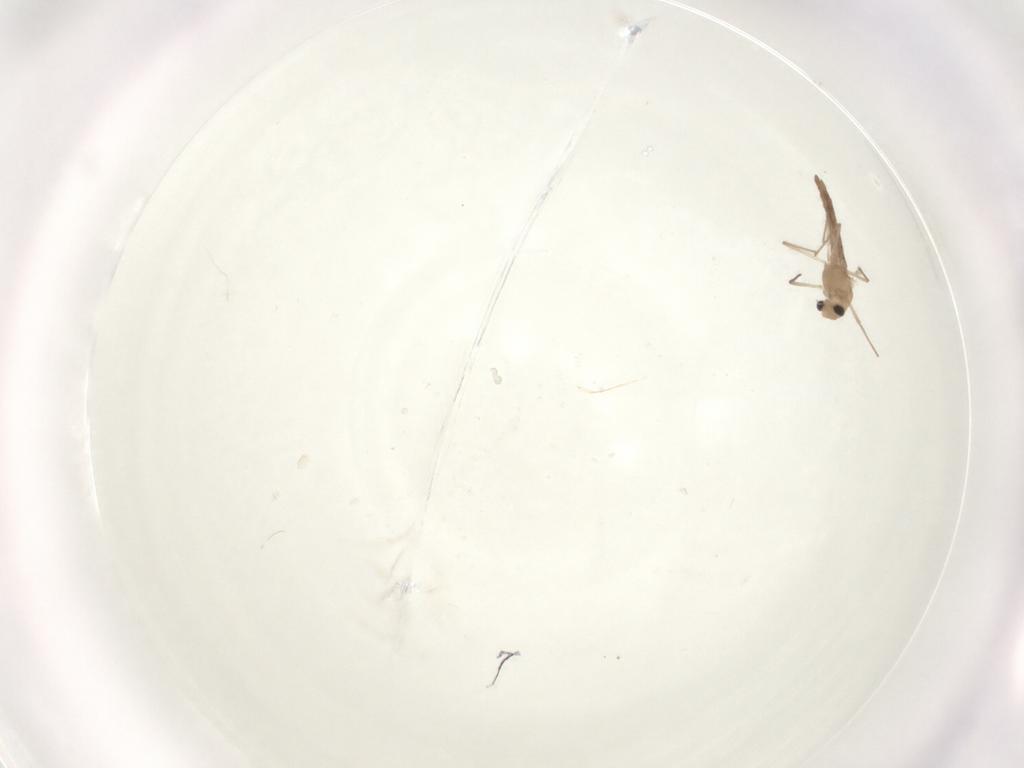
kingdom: Animalia
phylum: Arthropoda
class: Insecta
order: Diptera
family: Chironomidae
